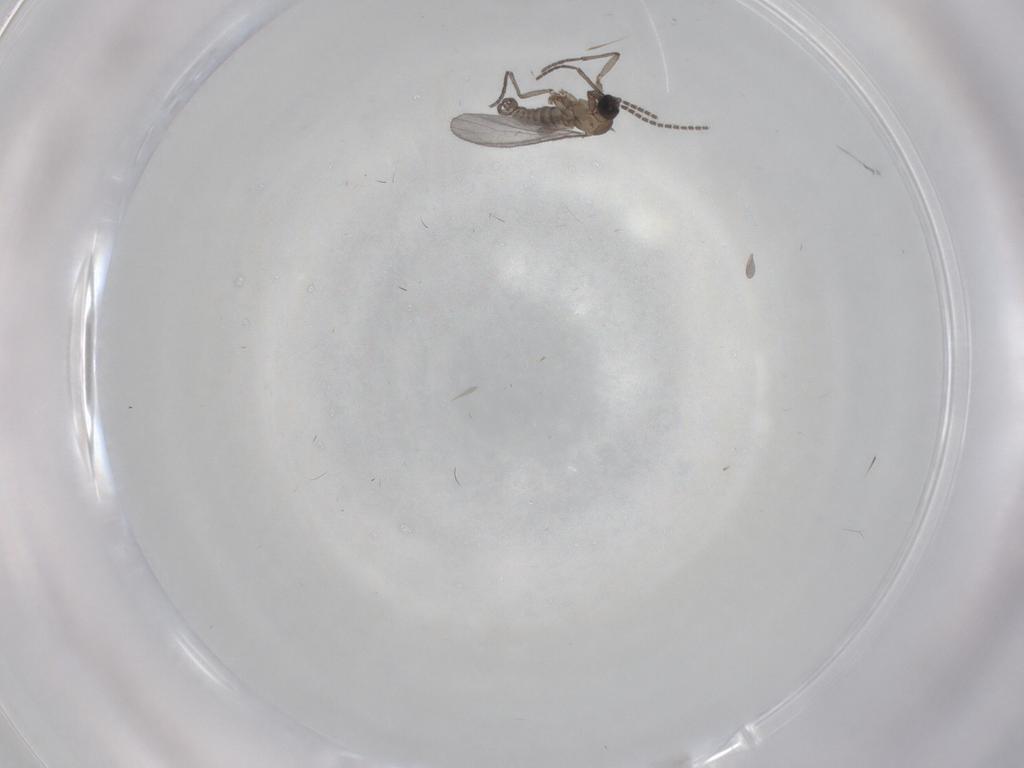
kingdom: Animalia
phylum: Arthropoda
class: Insecta
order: Diptera
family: Sciaridae
